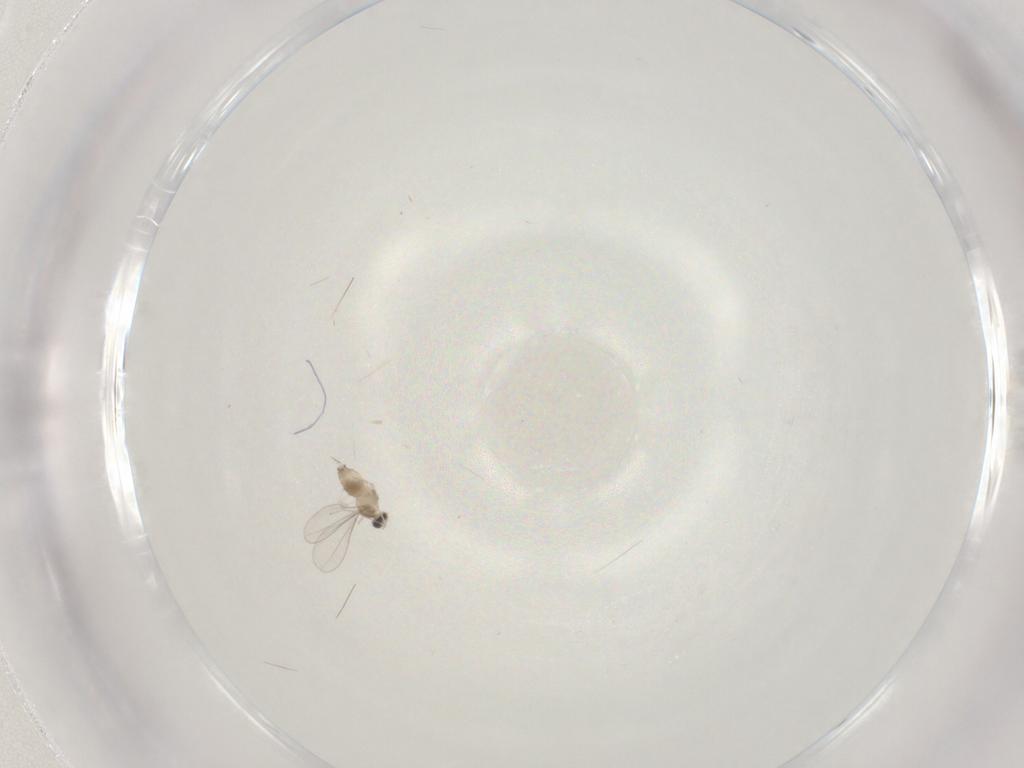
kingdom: Animalia
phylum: Arthropoda
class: Insecta
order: Diptera
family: Cecidomyiidae
